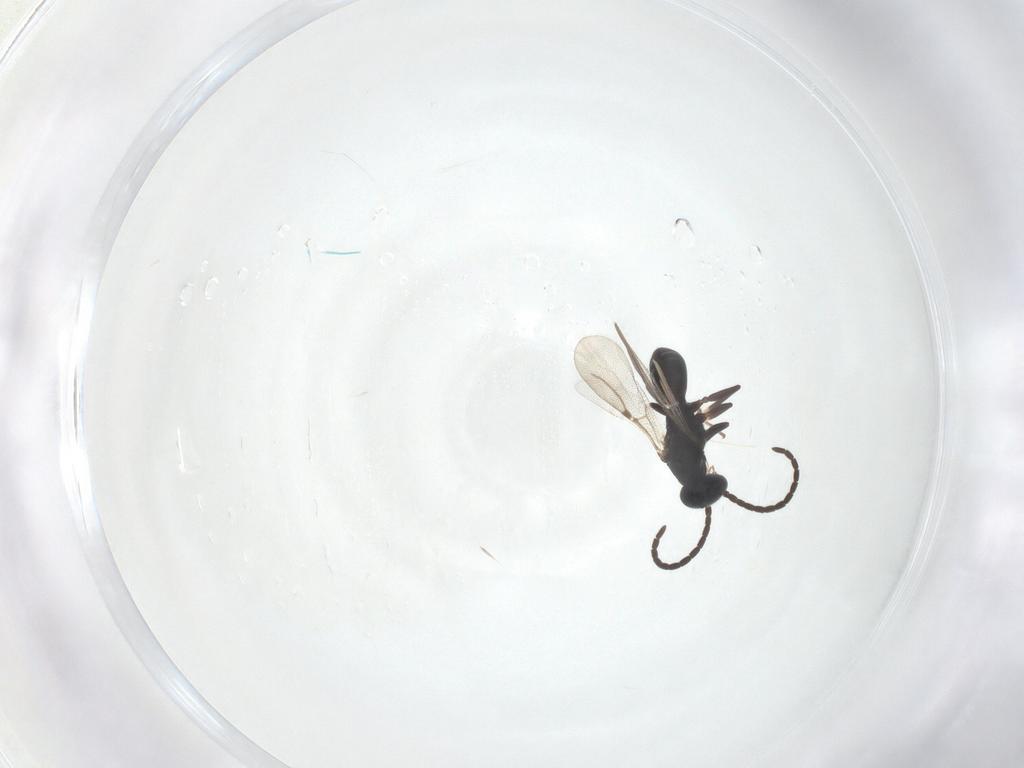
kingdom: Animalia
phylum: Arthropoda
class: Insecta
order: Hymenoptera
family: Bethylidae
